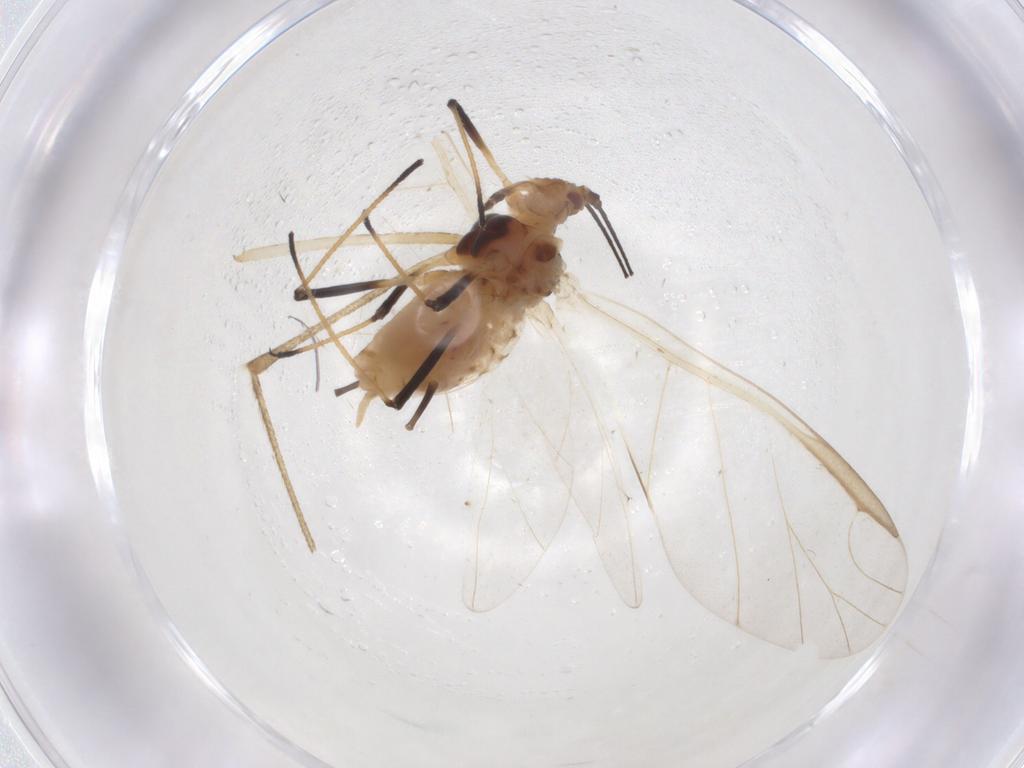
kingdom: Animalia
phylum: Arthropoda
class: Insecta
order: Hemiptera
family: Aphididae
